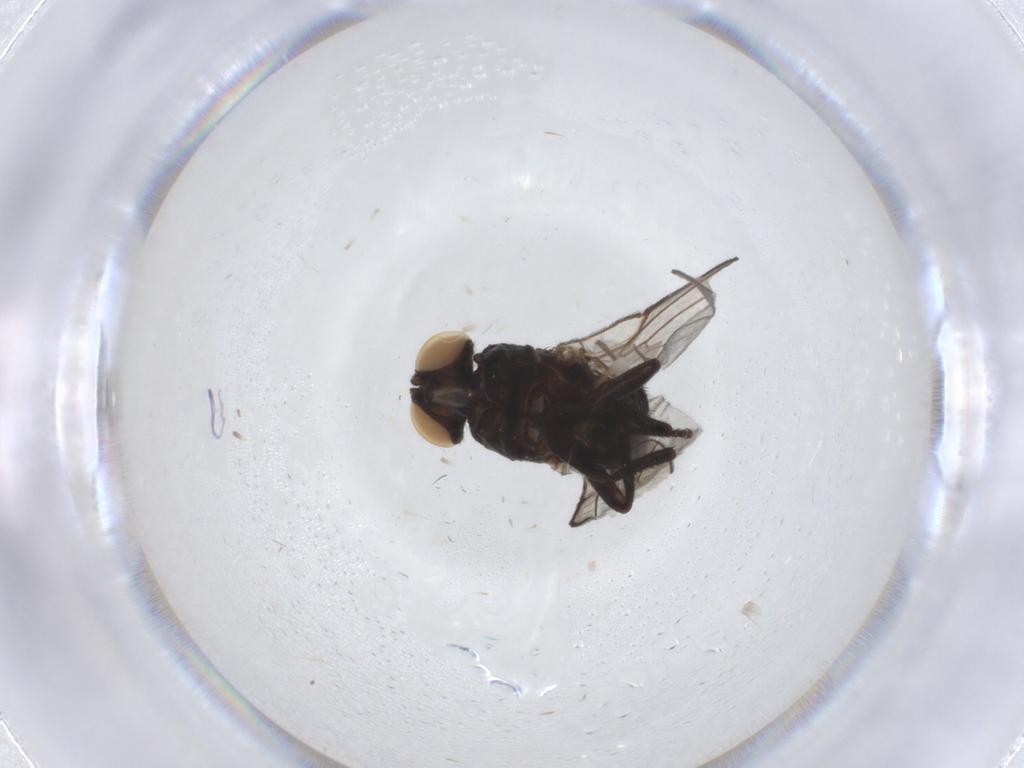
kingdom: Animalia
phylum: Arthropoda
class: Insecta
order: Diptera
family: Agromyzidae
